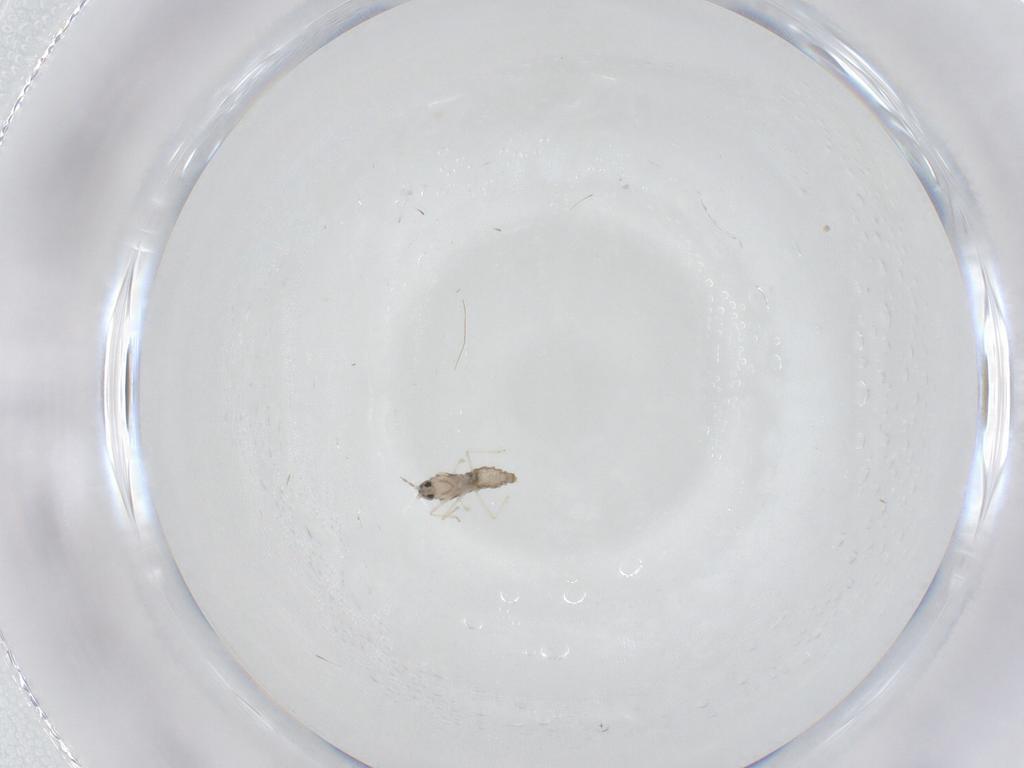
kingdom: Animalia
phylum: Arthropoda
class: Insecta
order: Diptera
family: Cecidomyiidae
